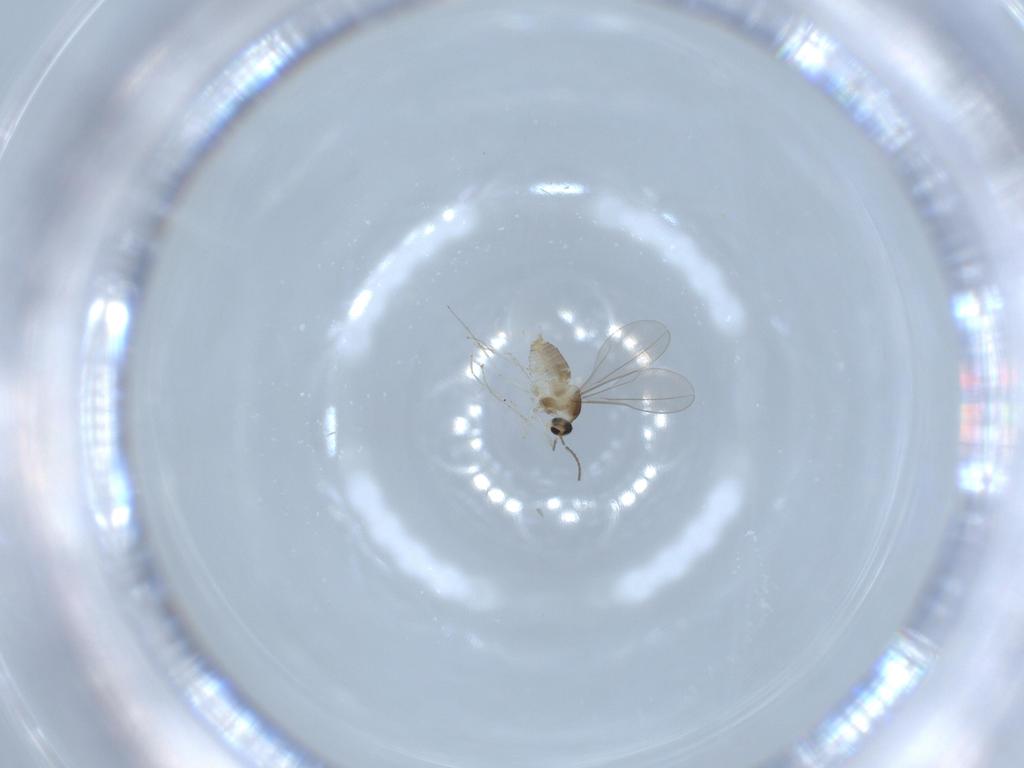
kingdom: Animalia
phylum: Arthropoda
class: Insecta
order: Diptera
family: Cecidomyiidae
